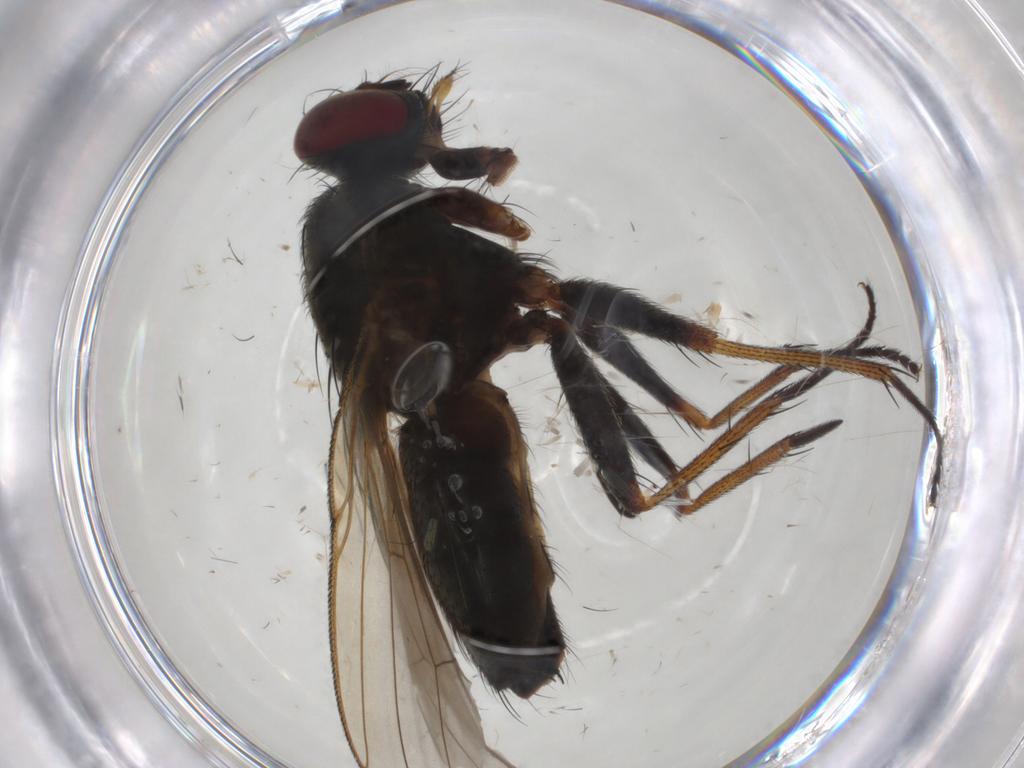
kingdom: Animalia
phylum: Arthropoda
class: Insecta
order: Diptera
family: Muscidae
